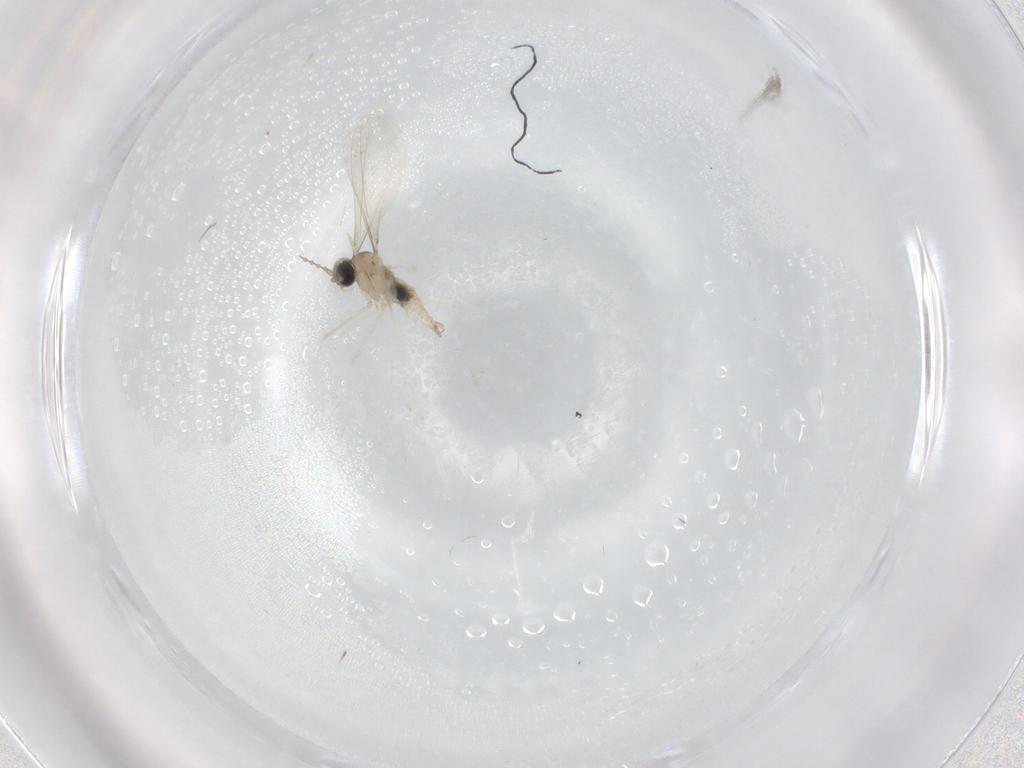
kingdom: Animalia
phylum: Arthropoda
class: Insecta
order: Diptera
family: Cecidomyiidae
